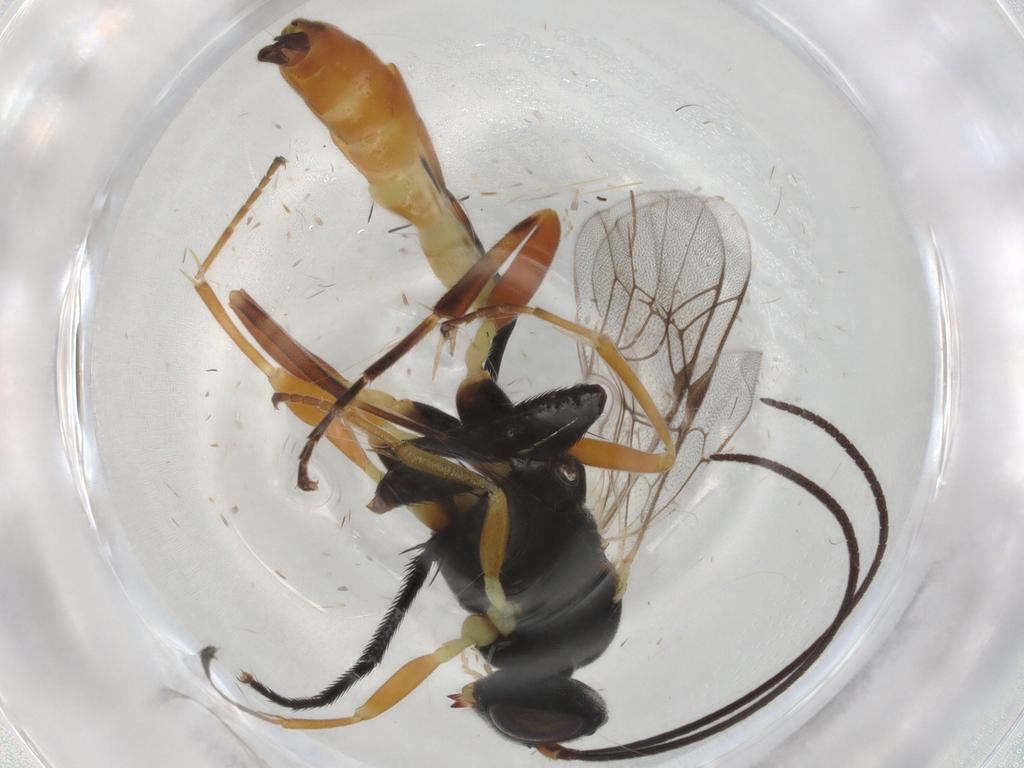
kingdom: Animalia
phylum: Arthropoda
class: Insecta
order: Hymenoptera
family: Ichneumonidae
